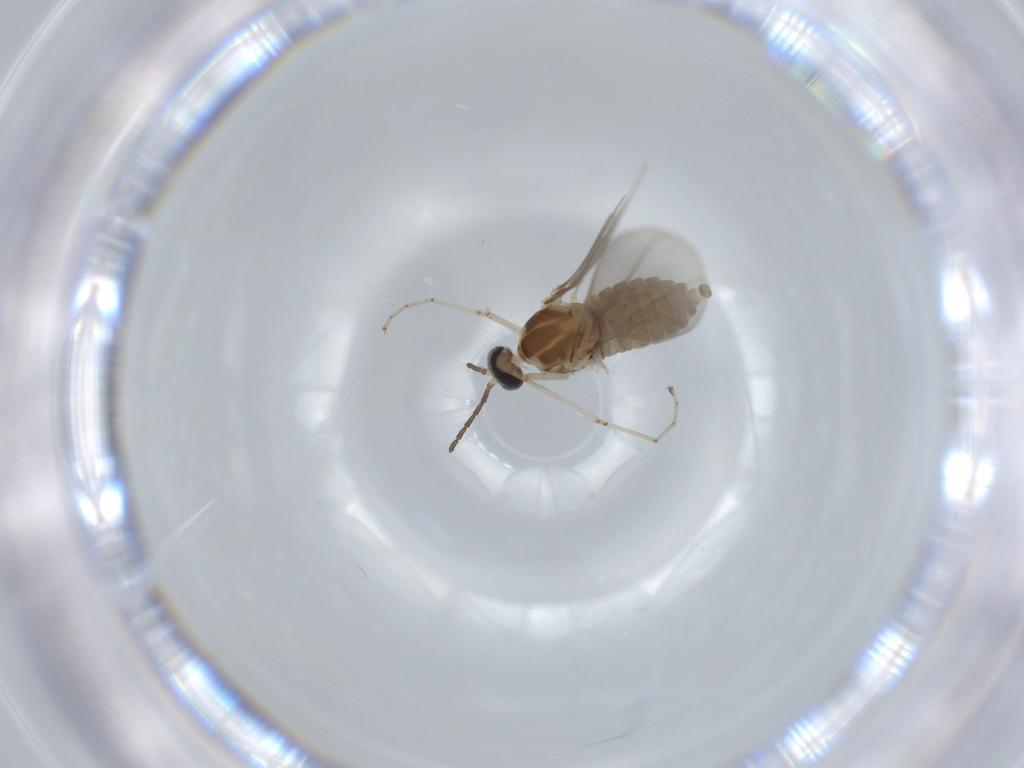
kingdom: Animalia
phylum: Arthropoda
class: Insecta
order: Diptera
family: Cecidomyiidae
